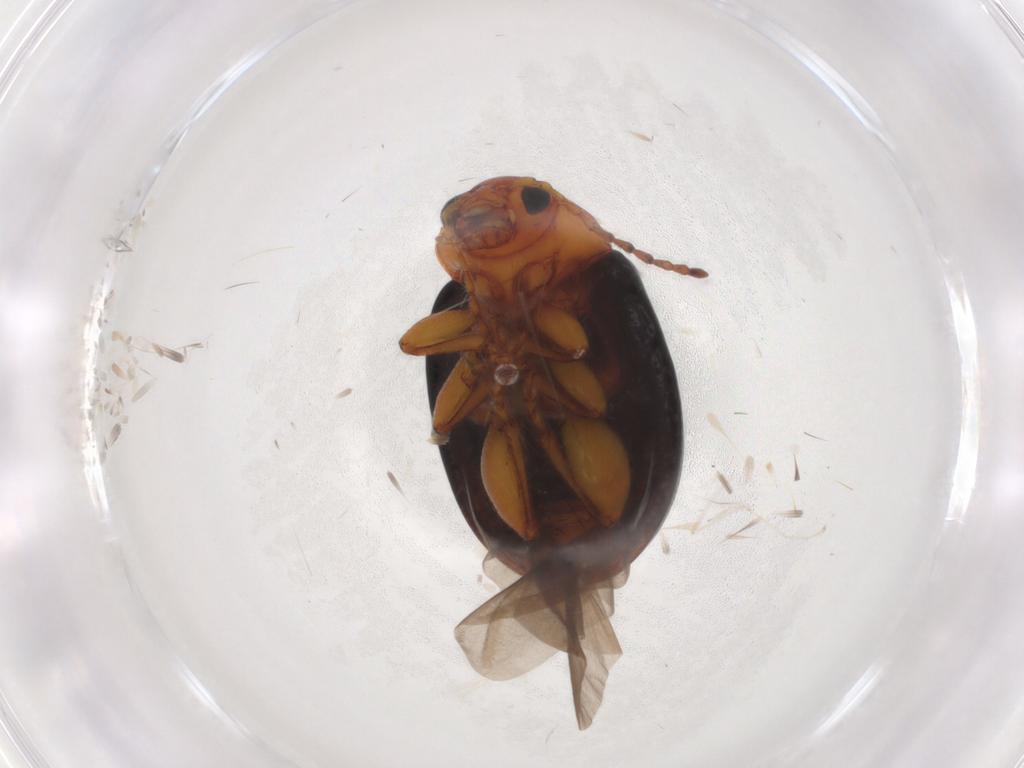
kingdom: Animalia
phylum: Arthropoda
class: Insecta
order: Coleoptera
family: Chrysomelidae
